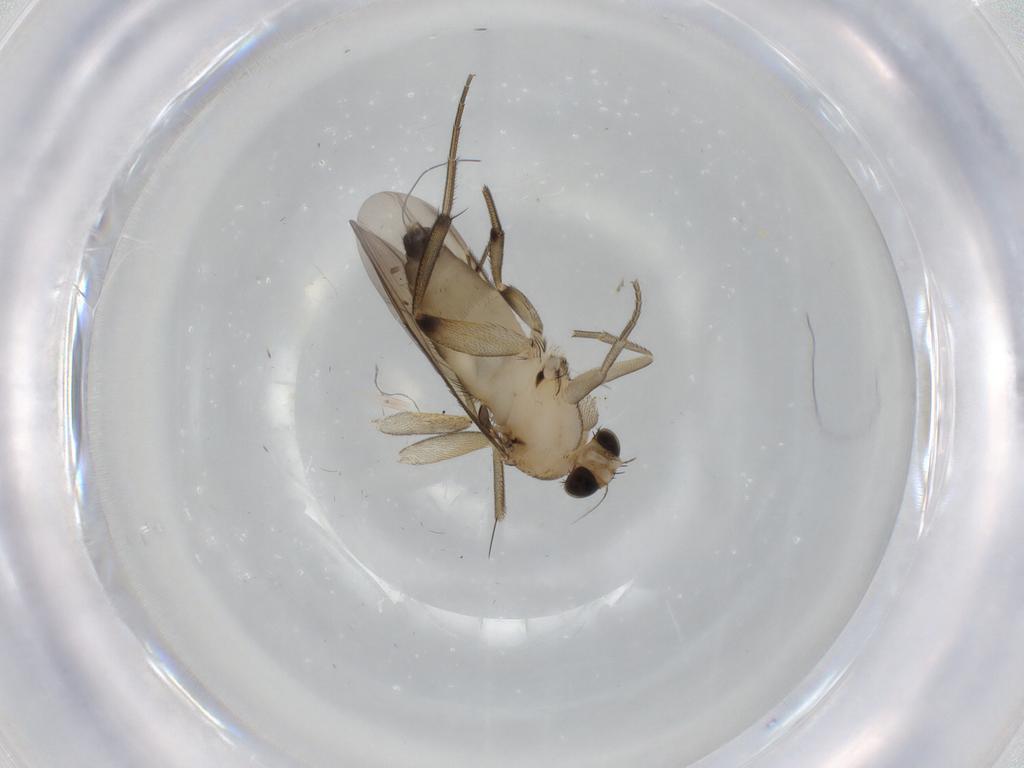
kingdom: Animalia
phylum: Arthropoda
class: Insecta
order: Diptera
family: Phoridae
